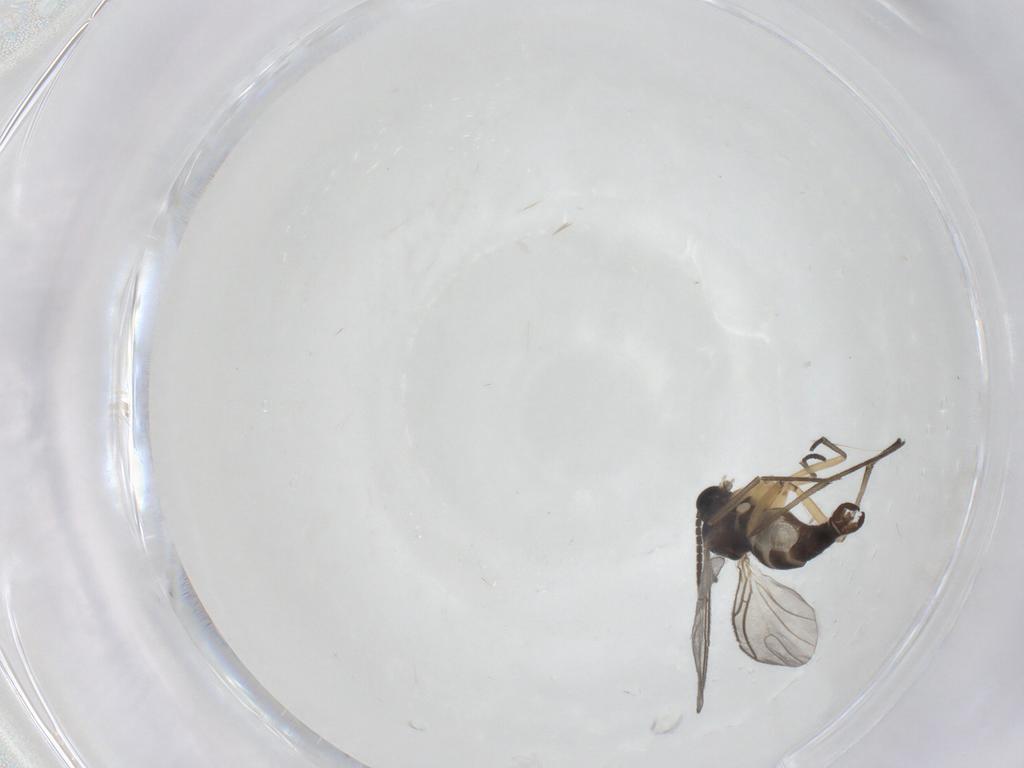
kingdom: Animalia
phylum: Arthropoda
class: Insecta
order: Diptera
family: Sciaridae
